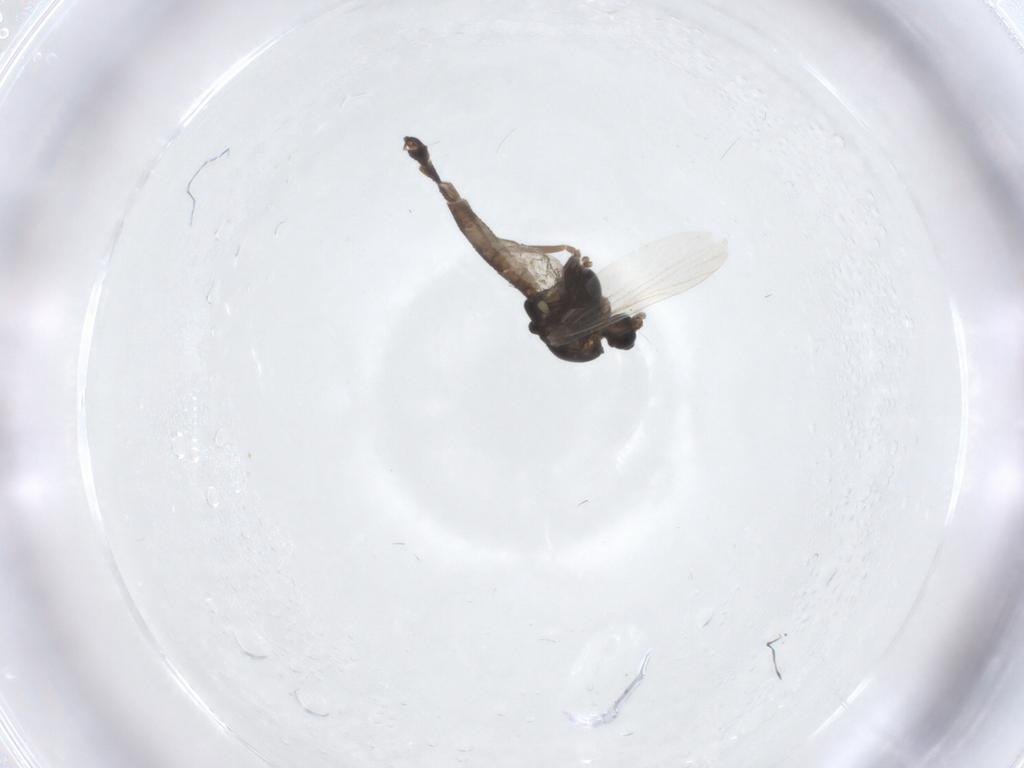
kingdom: Animalia
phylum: Arthropoda
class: Insecta
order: Diptera
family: Chironomidae
